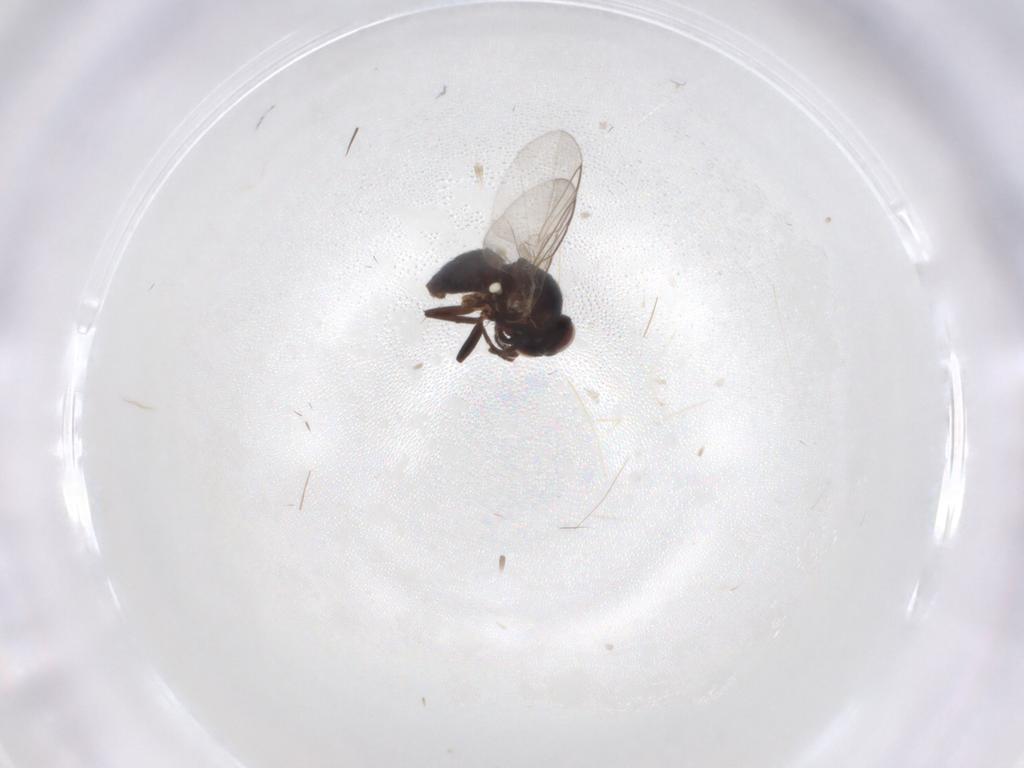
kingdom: Animalia
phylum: Arthropoda
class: Insecta
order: Diptera
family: Cecidomyiidae
